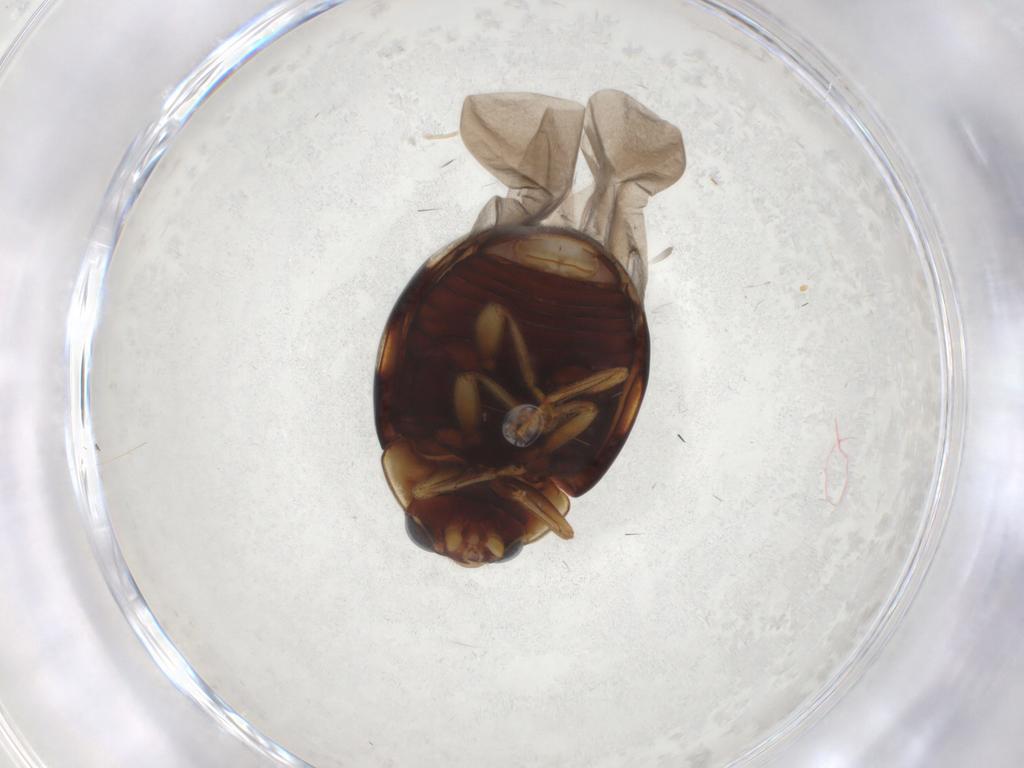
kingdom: Animalia
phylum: Arthropoda
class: Insecta
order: Coleoptera
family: Coccinellidae
